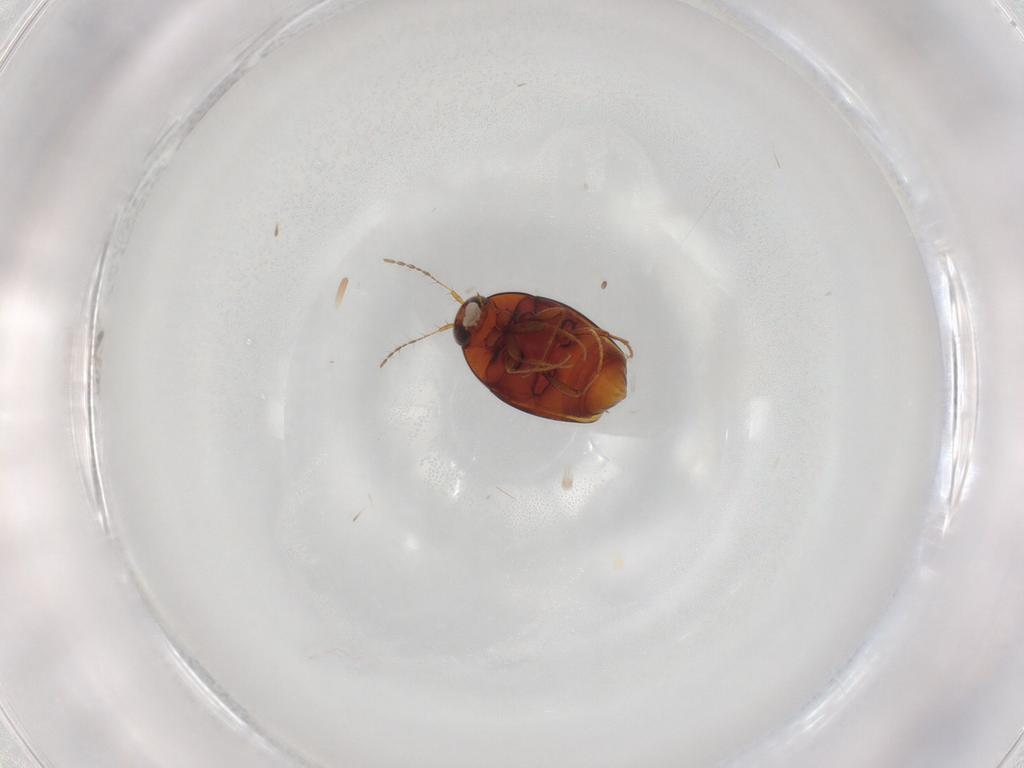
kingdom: Animalia
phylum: Arthropoda
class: Insecta
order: Coleoptera
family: Staphylinidae
